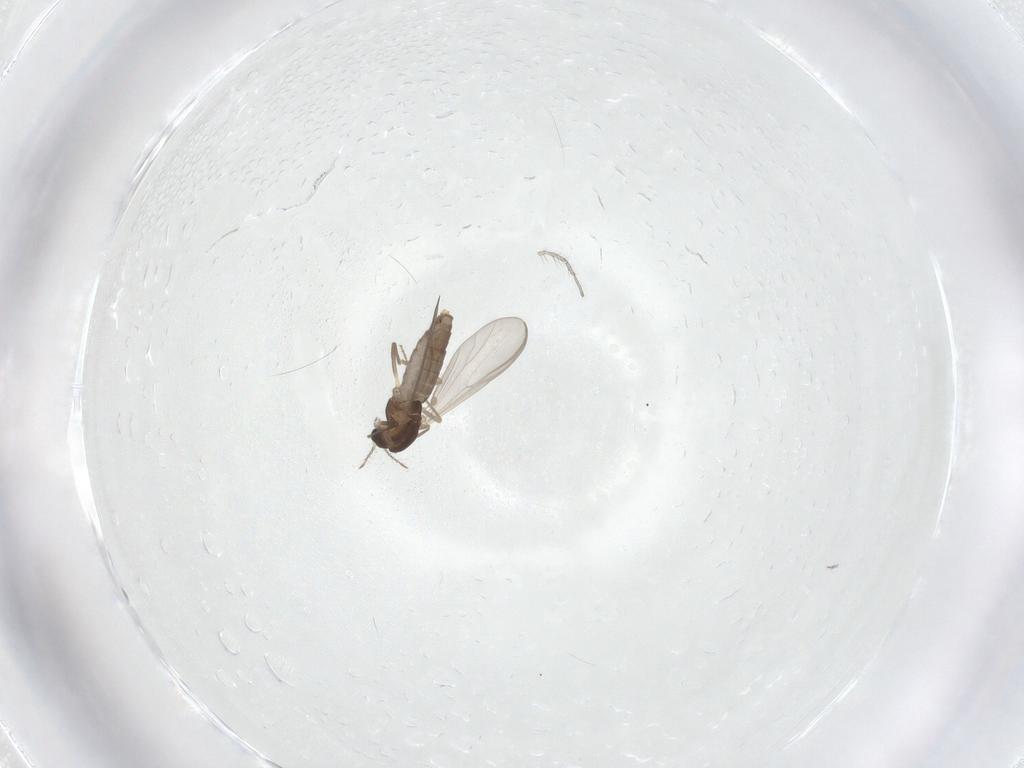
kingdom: Animalia
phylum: Arthropoda
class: Insecta
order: Diptera
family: Chironomidae
